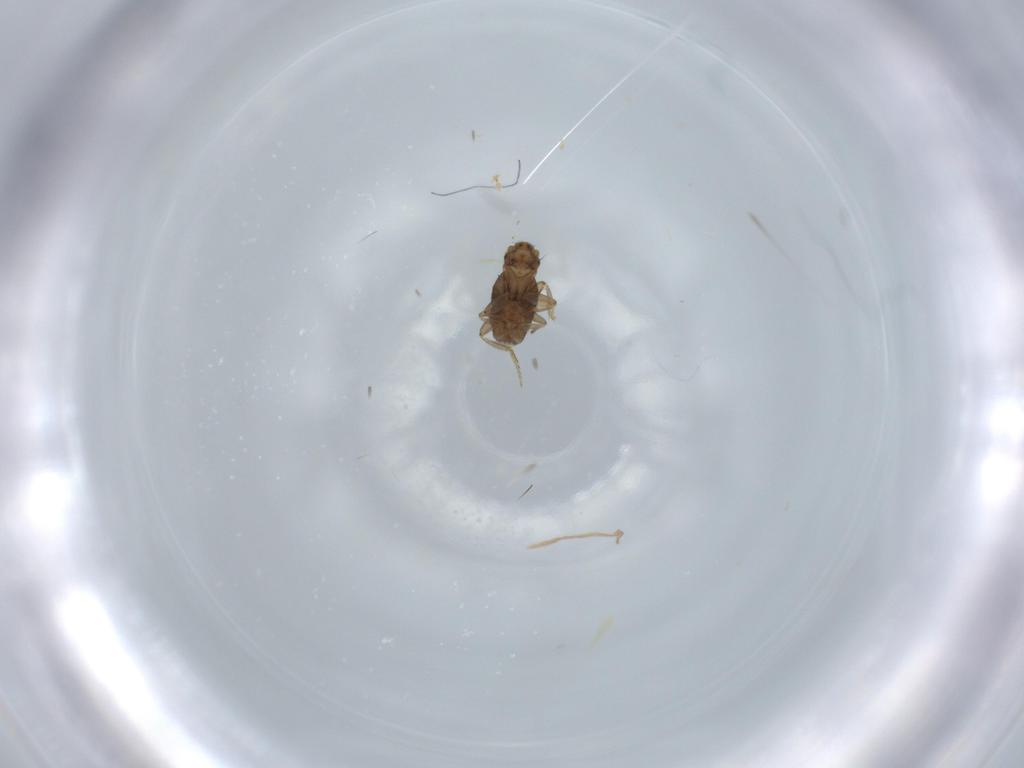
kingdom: Animalia
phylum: Arthropoda
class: Insecta
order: Diptera
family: Phoridae
